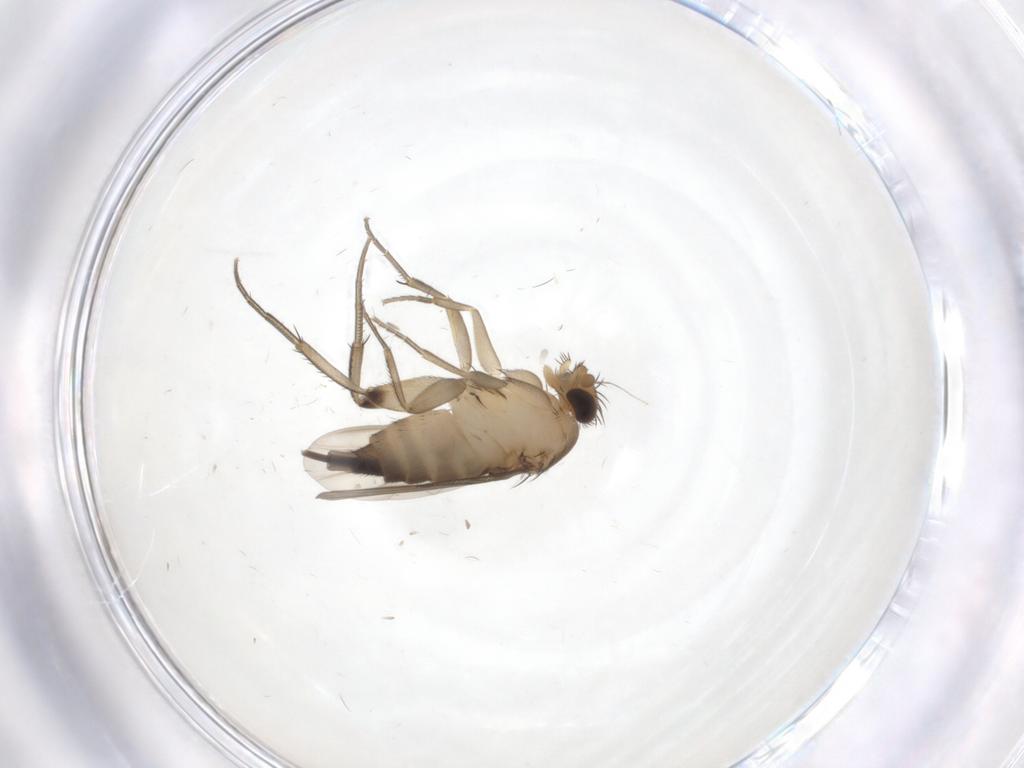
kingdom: Animalia
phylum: Arthropoda
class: Insecta
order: Diptera
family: Phoridae
